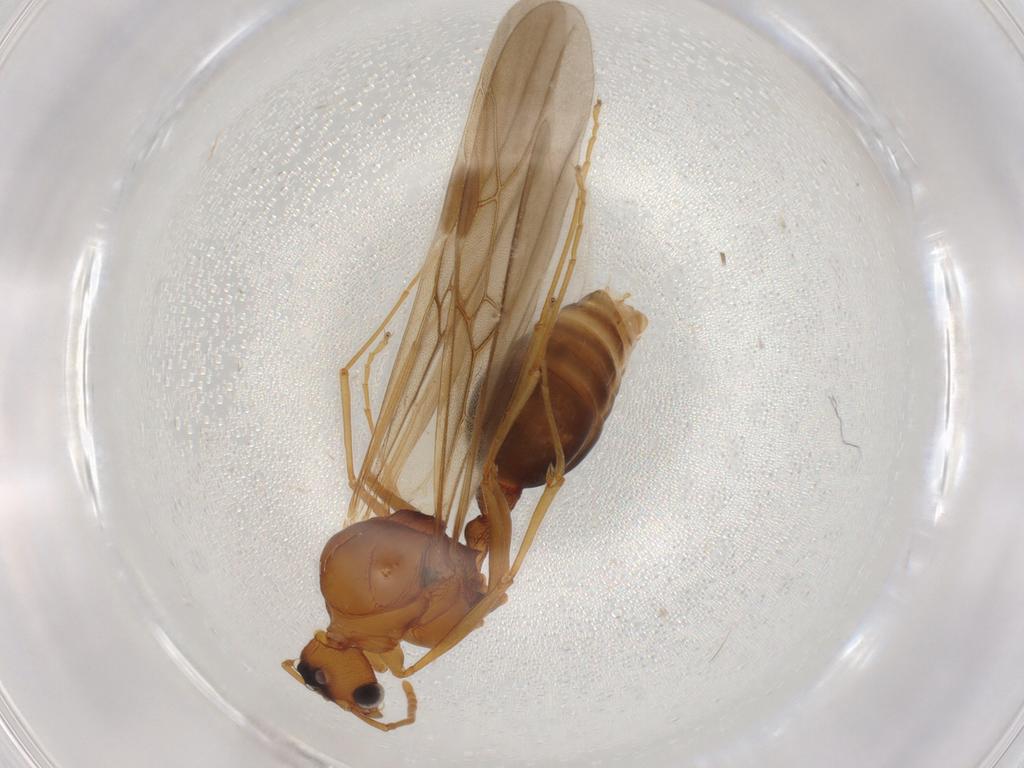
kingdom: Animalia
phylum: Arthropoda
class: Insecta
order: Hymenoptera
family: Formicidae
